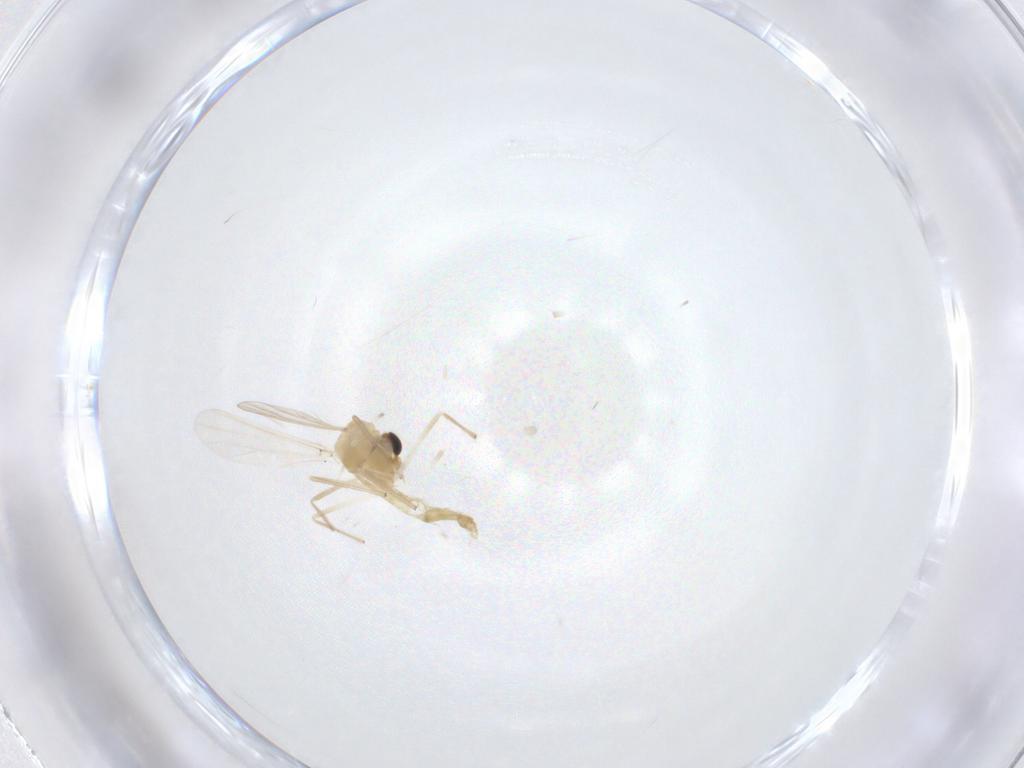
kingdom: Animalia
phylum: Arthropoda
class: Insecta
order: Diptera
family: Chironomidae
